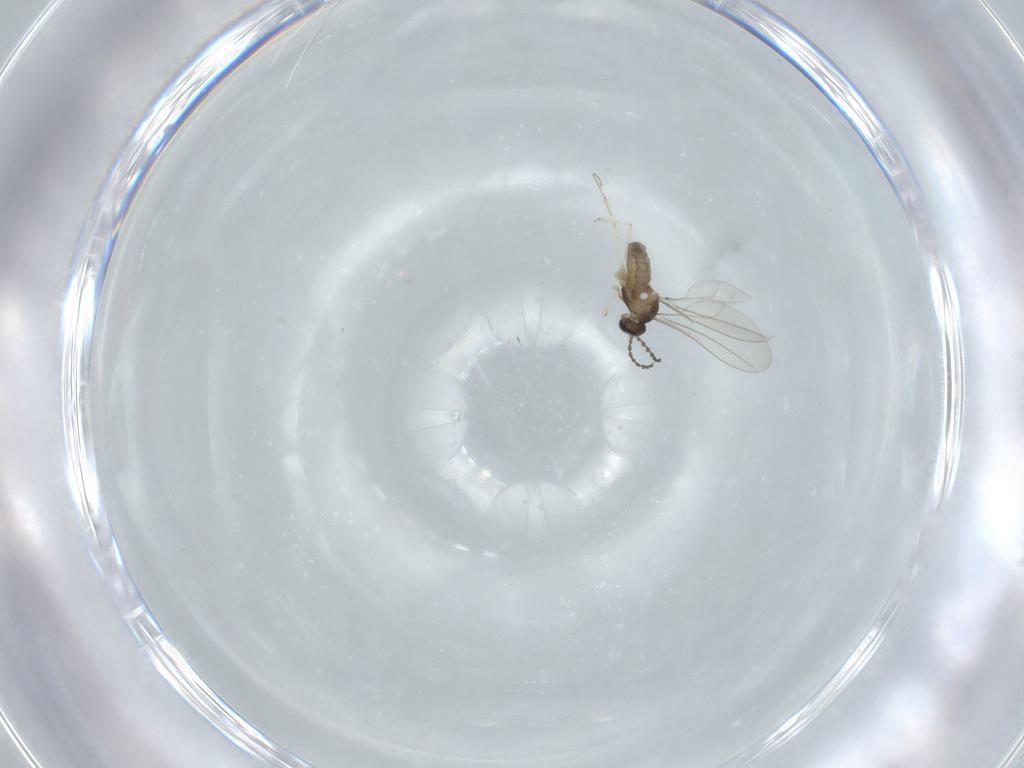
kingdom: Animalia
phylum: Arthropoda
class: Insecta
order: Diptera
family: Cecidomyiidae
